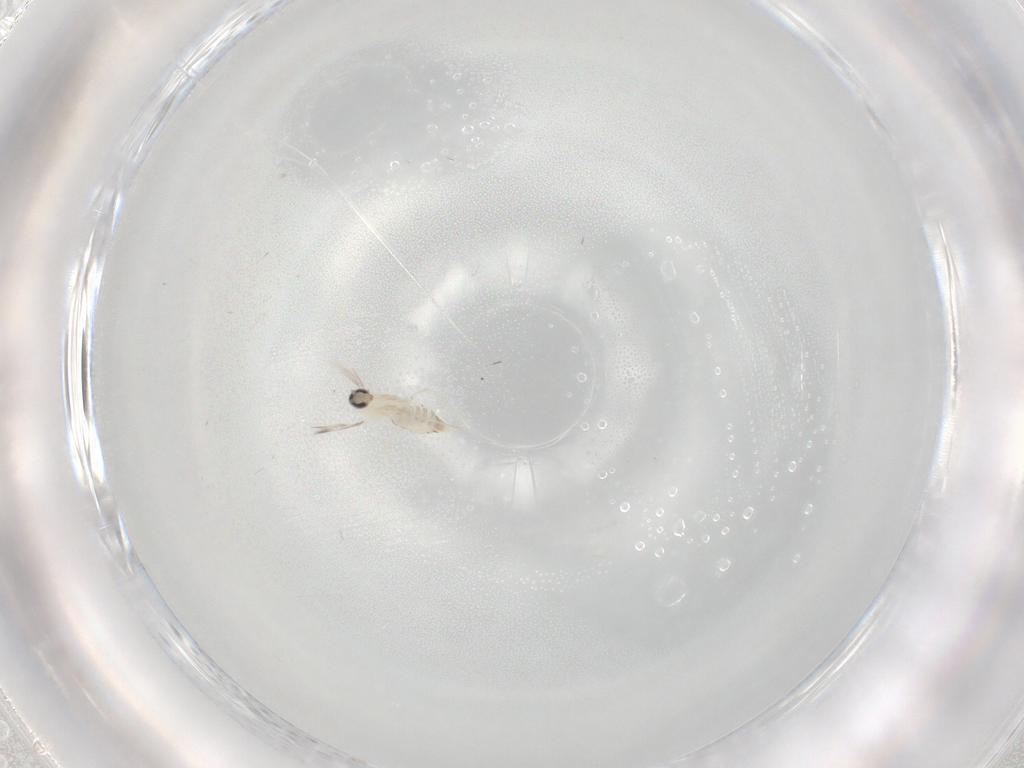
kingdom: Animalia
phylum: Arthropoda
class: Insecta
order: Diptera
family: Cecidomyiidae
